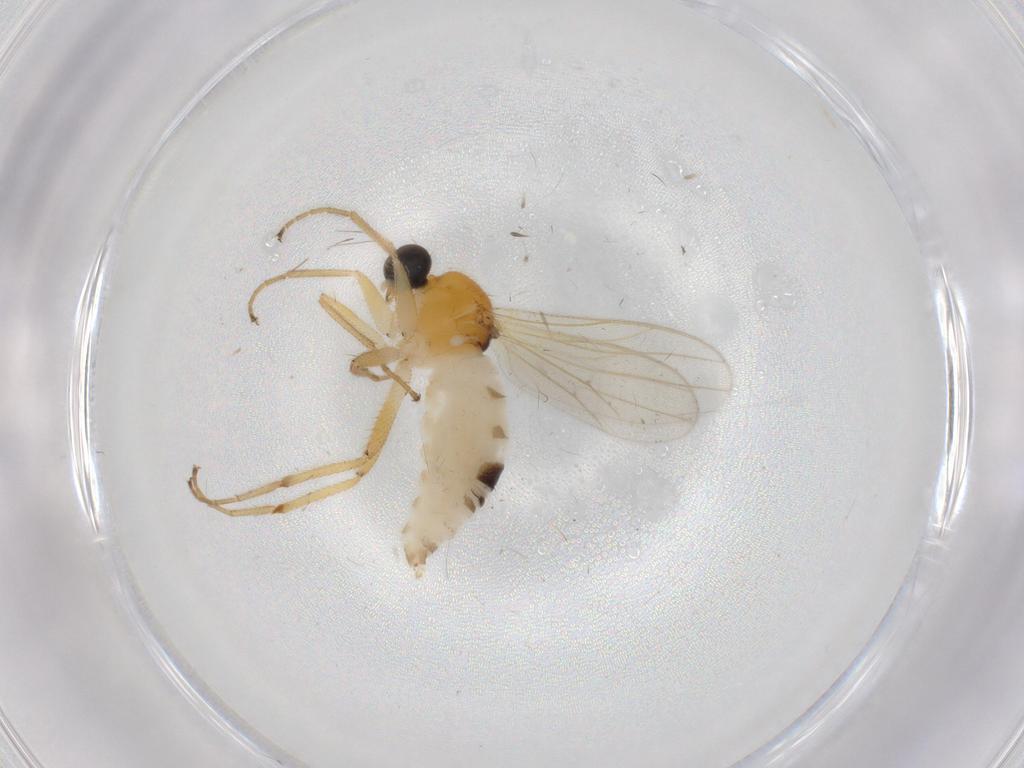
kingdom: Animalia
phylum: Arthropoda
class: Insecta
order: Diptera
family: Hybotidae
